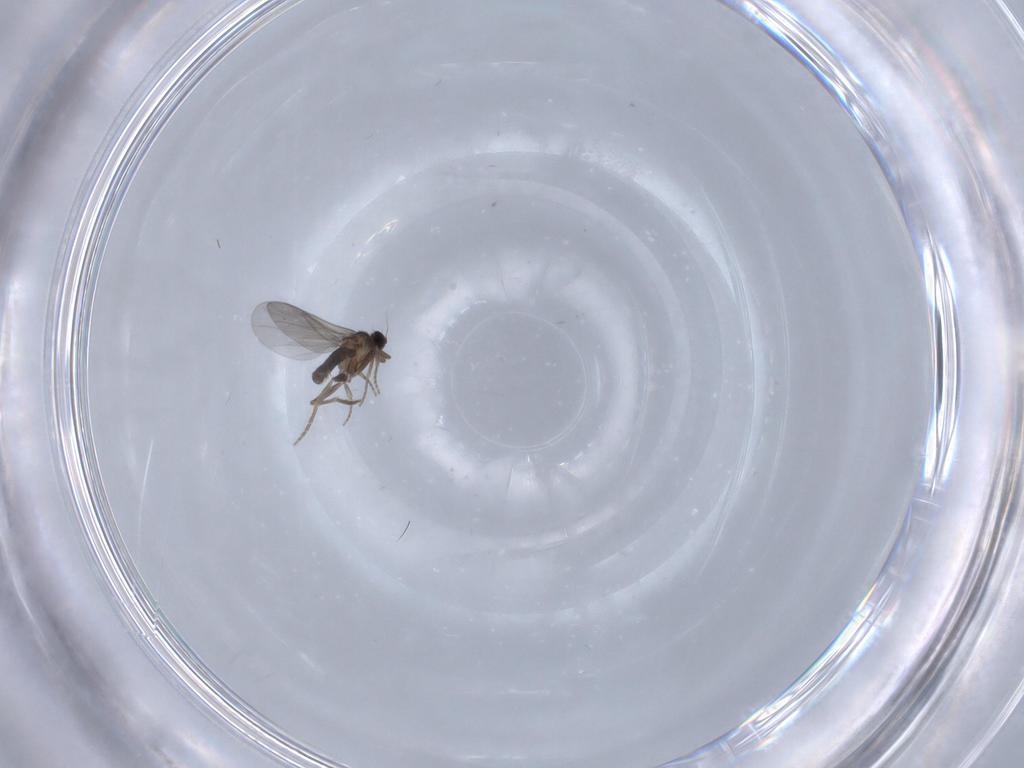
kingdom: Animalia
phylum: Arthropoda
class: Insecta
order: Diptera
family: Chironomidae
